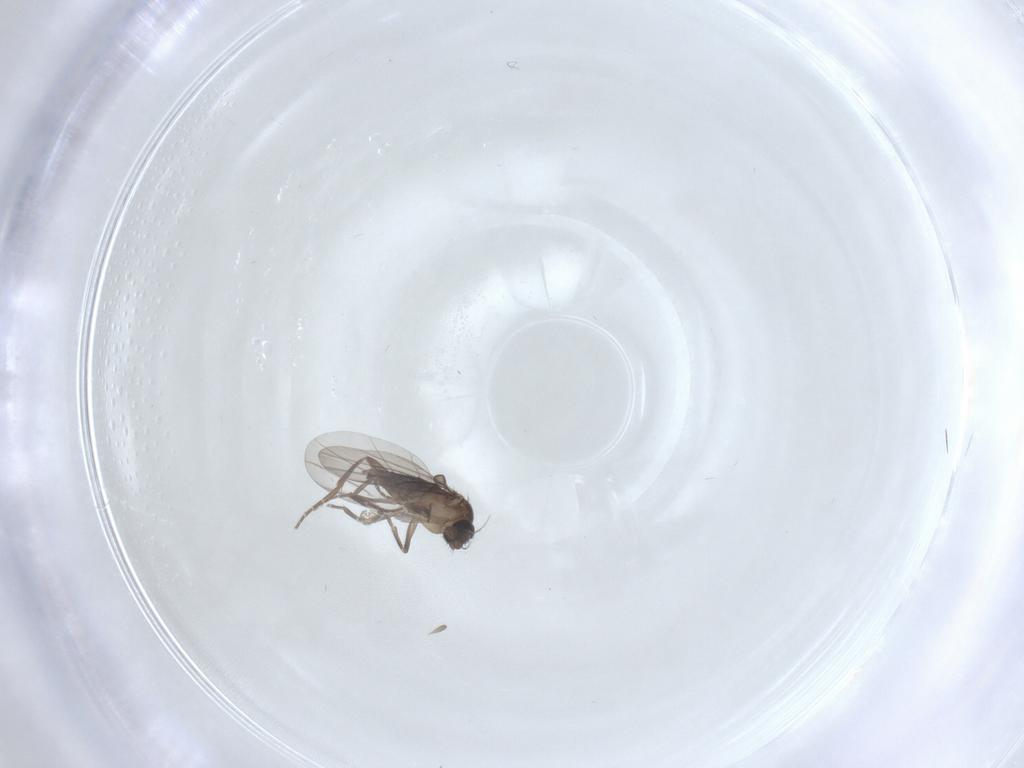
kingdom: Animalia
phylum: Arthropoda
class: Insecta
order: Diptera
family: Phoridae
